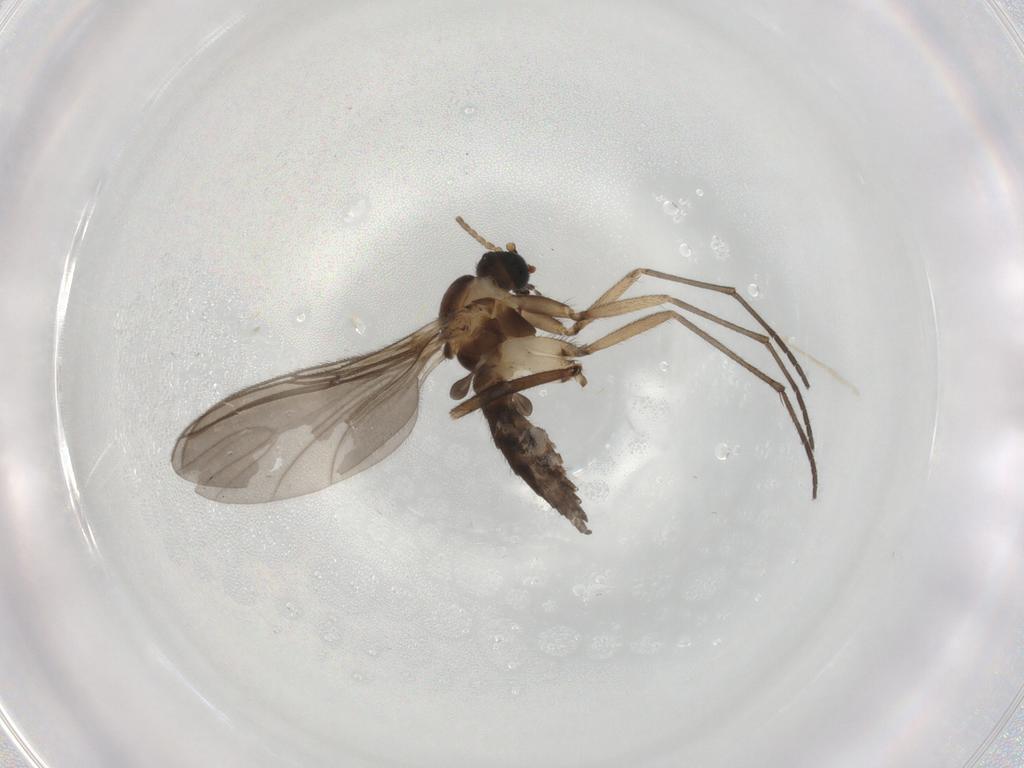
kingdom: Animalia
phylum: Arthropoda
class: Insecta
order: Diptera
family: Sciaridae
